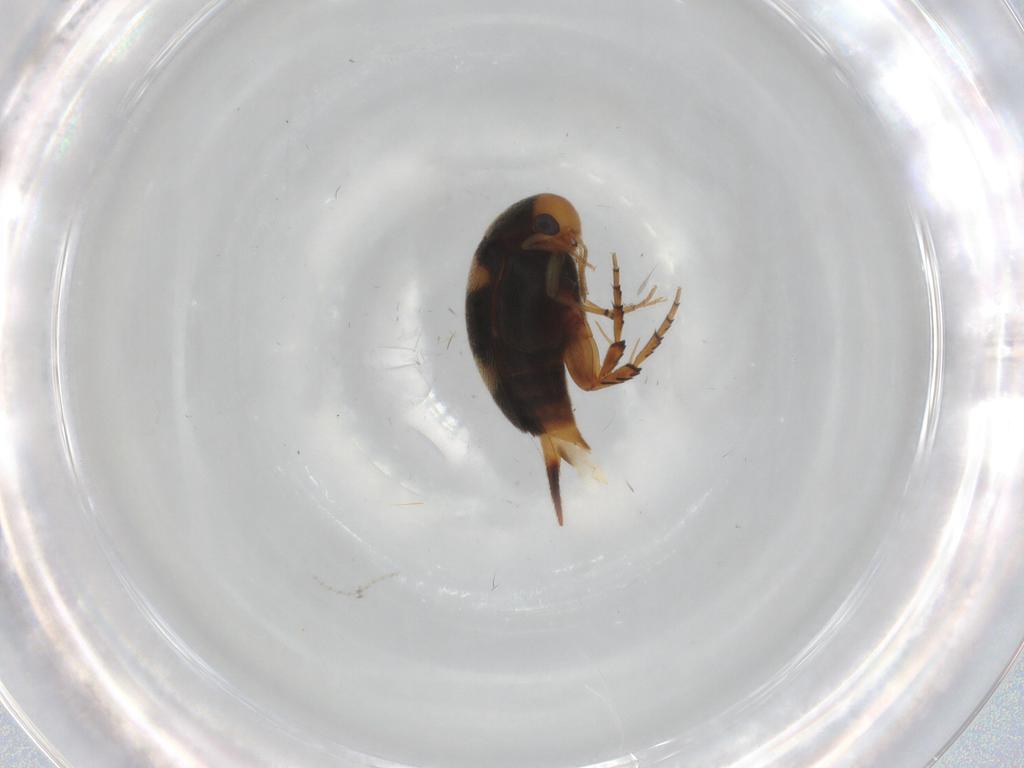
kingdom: Animalia
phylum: Arthropoda
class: Insecta
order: Coleoptera
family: Mordellidae
